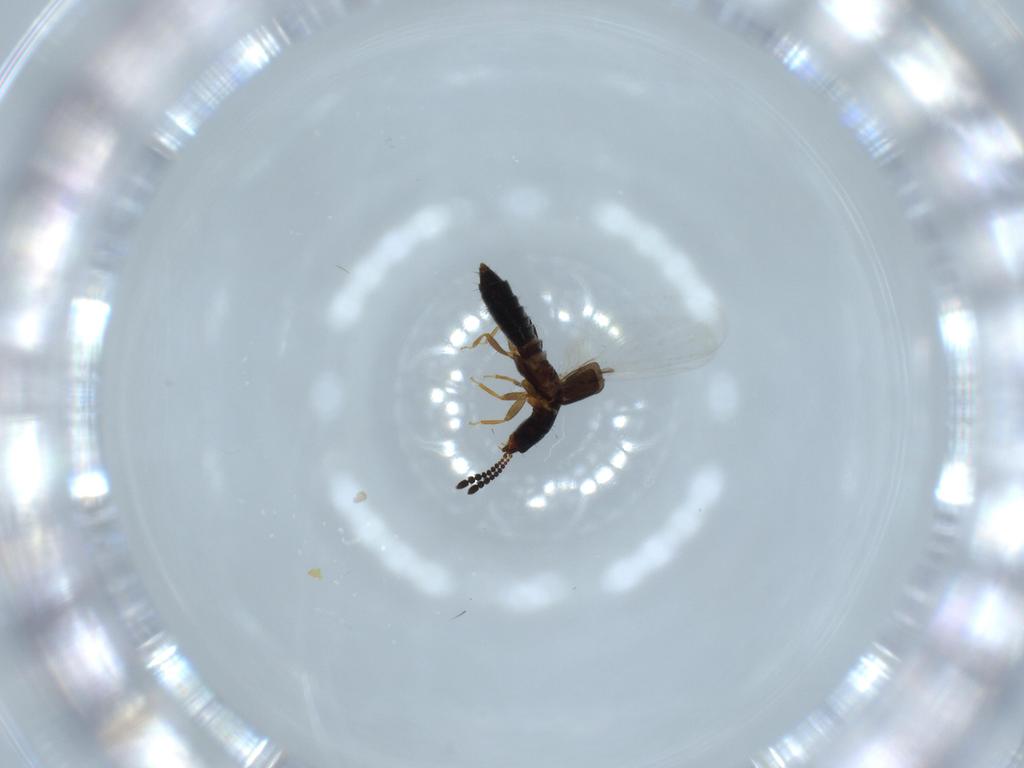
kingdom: Animalia
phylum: Arthropoda
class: Insecta
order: Coleoptera
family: Staphylinidae
